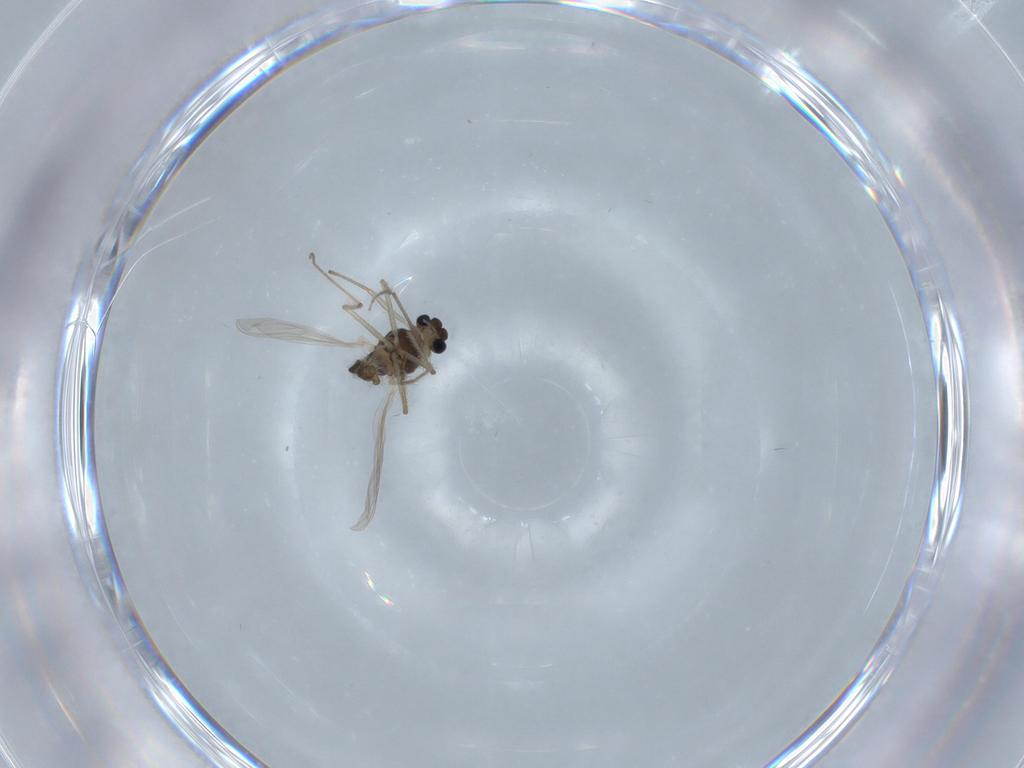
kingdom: Animalia
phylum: Arthropoda
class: Insecta
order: Diptera
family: Chironomidae
